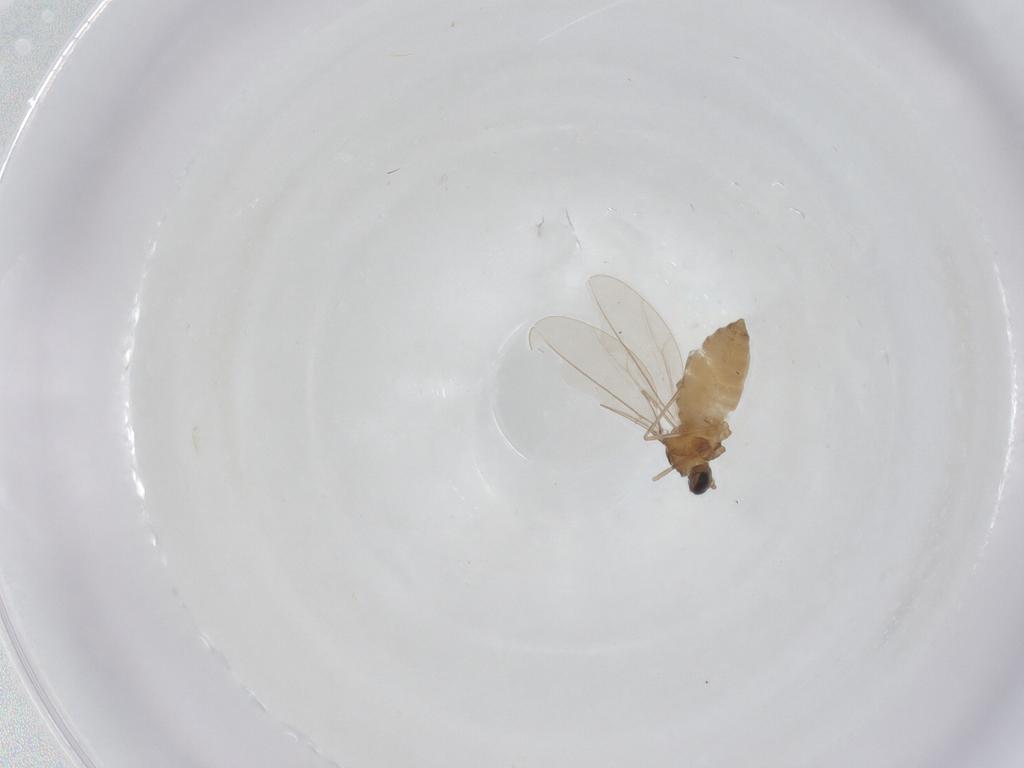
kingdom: Animalia
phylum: Arthropoda
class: Insecta
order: Diptera
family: Cecidomyiidae
